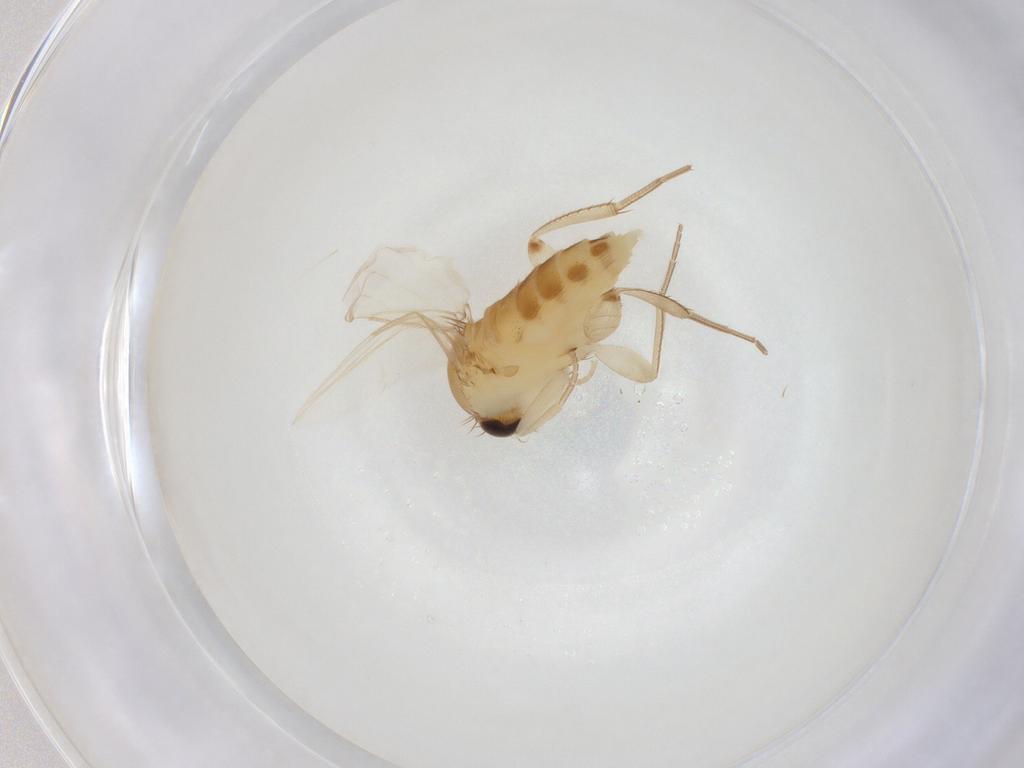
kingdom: Animalia
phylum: Arthropoda
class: Insecta
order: Diptera
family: Phoridae
